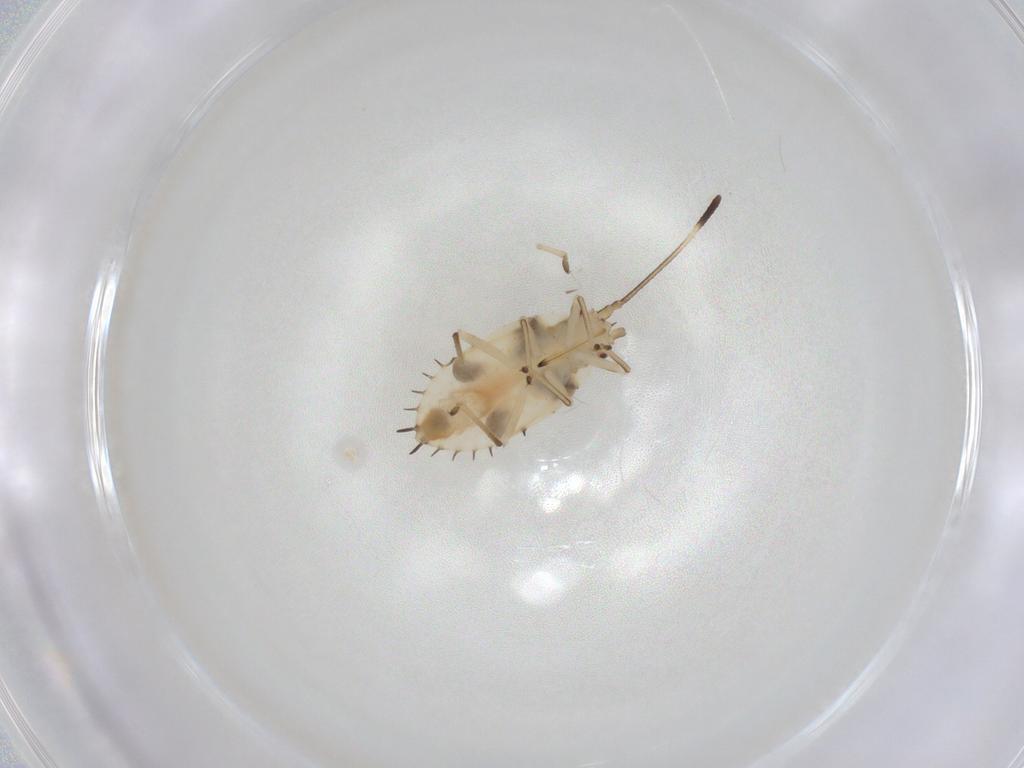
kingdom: Animalia
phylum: Arthropoda
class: Insecta
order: Hemiptera
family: Tingidae
